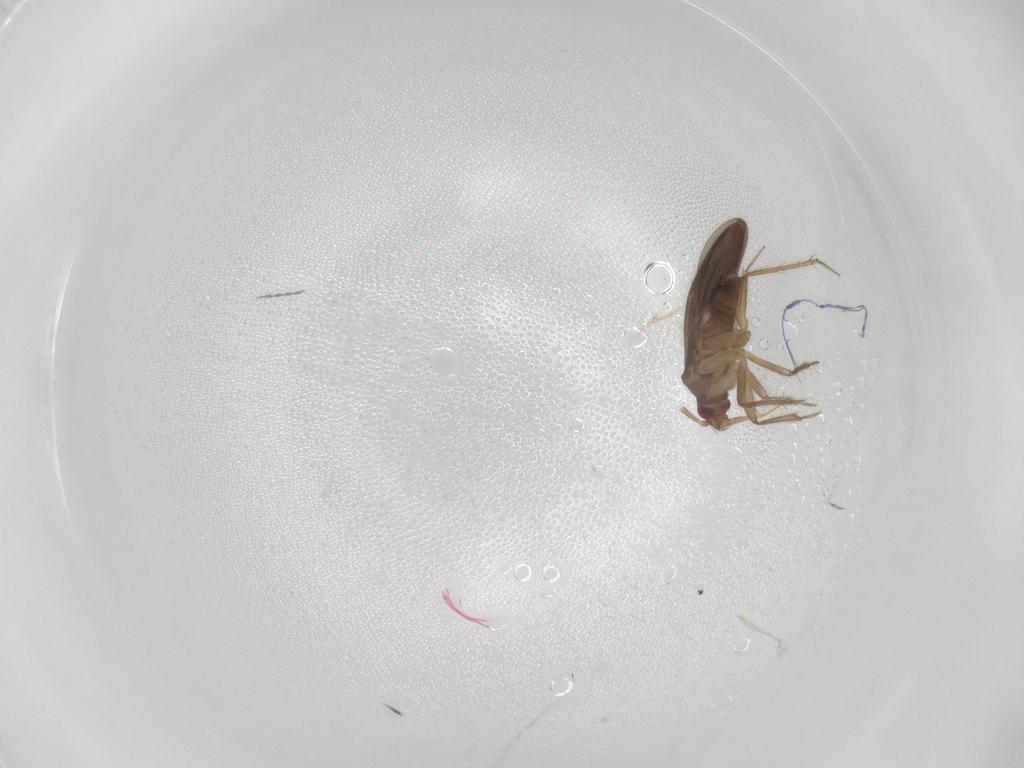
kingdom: Animalia
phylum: Arthropoda
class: Insecta
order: Hemiptera
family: Ceratocombidae
